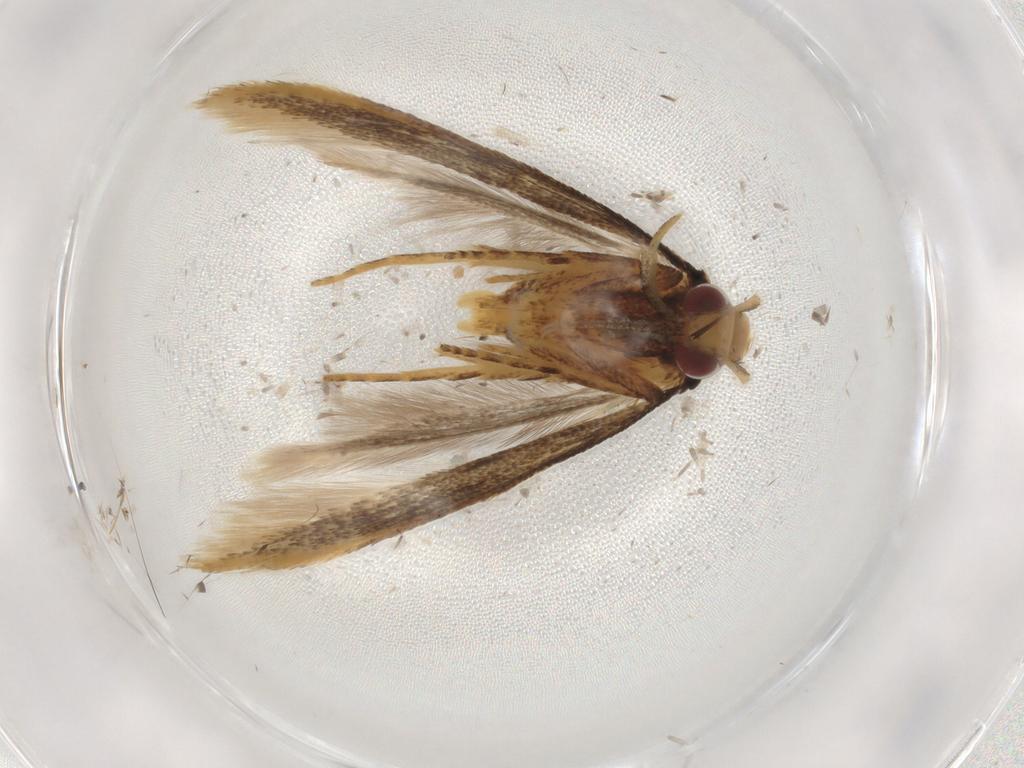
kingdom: Animalia
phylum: Arthropoda
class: Insecta
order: Lepidoptera
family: Gelechiidae
